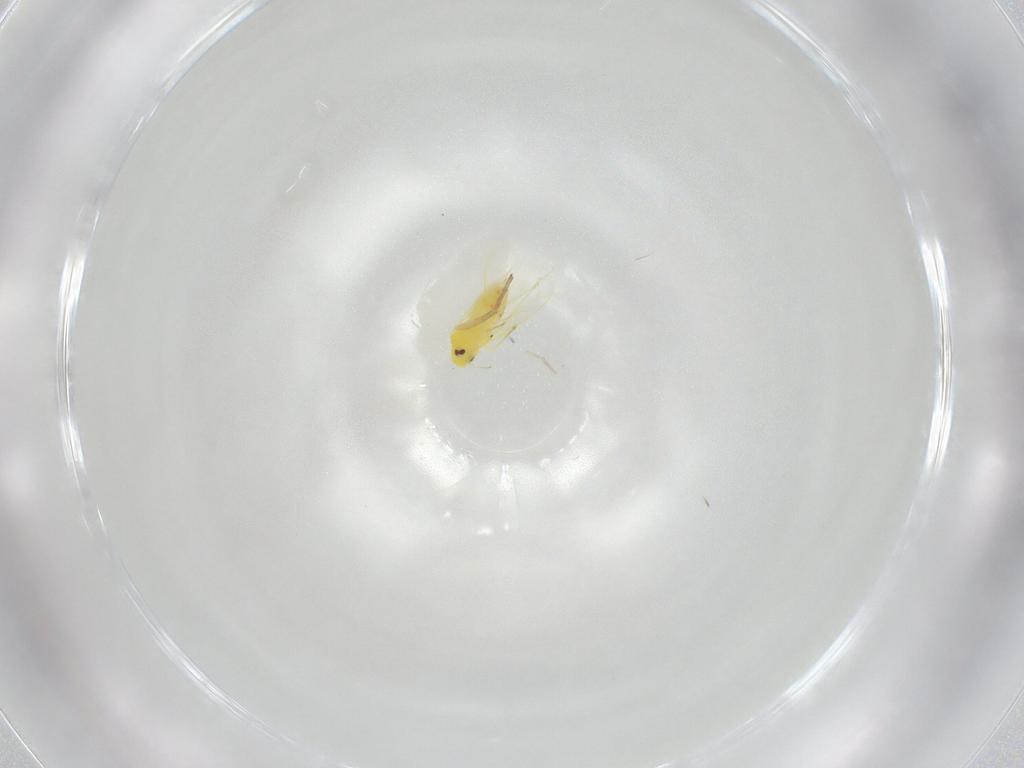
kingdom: Animalia
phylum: Arthropoda
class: Insecta
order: Hemiptera
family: Aleyrodidae
